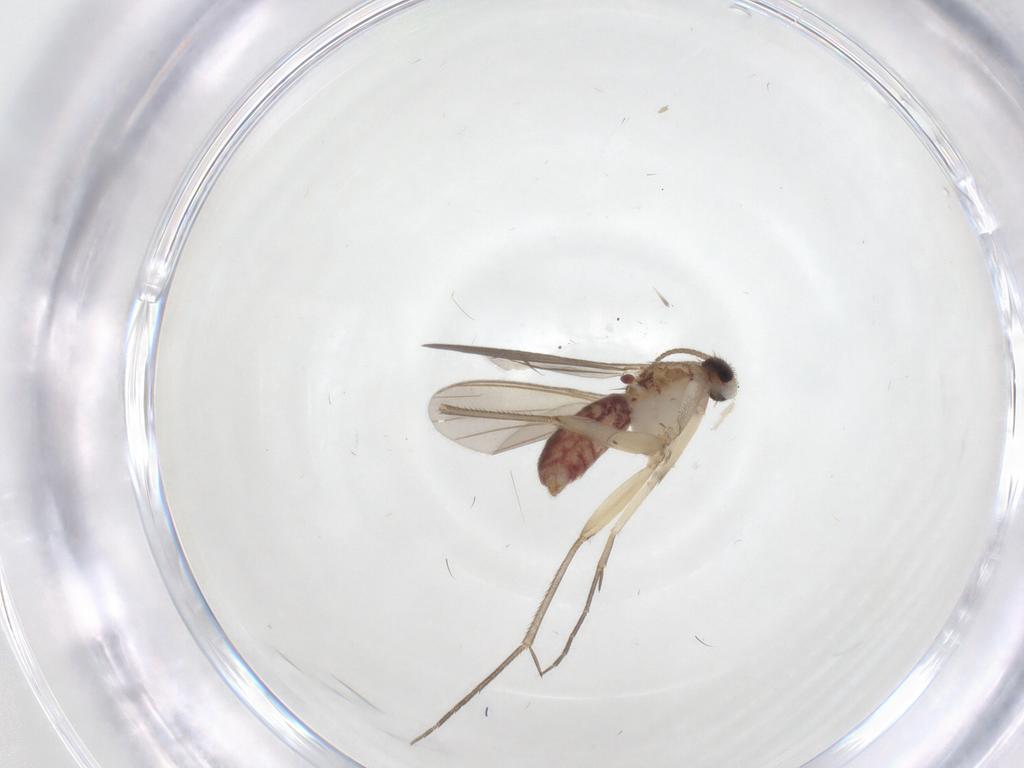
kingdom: Animalia
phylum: Arthropoda
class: Insecta
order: Diptera
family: Mycetophilidae
